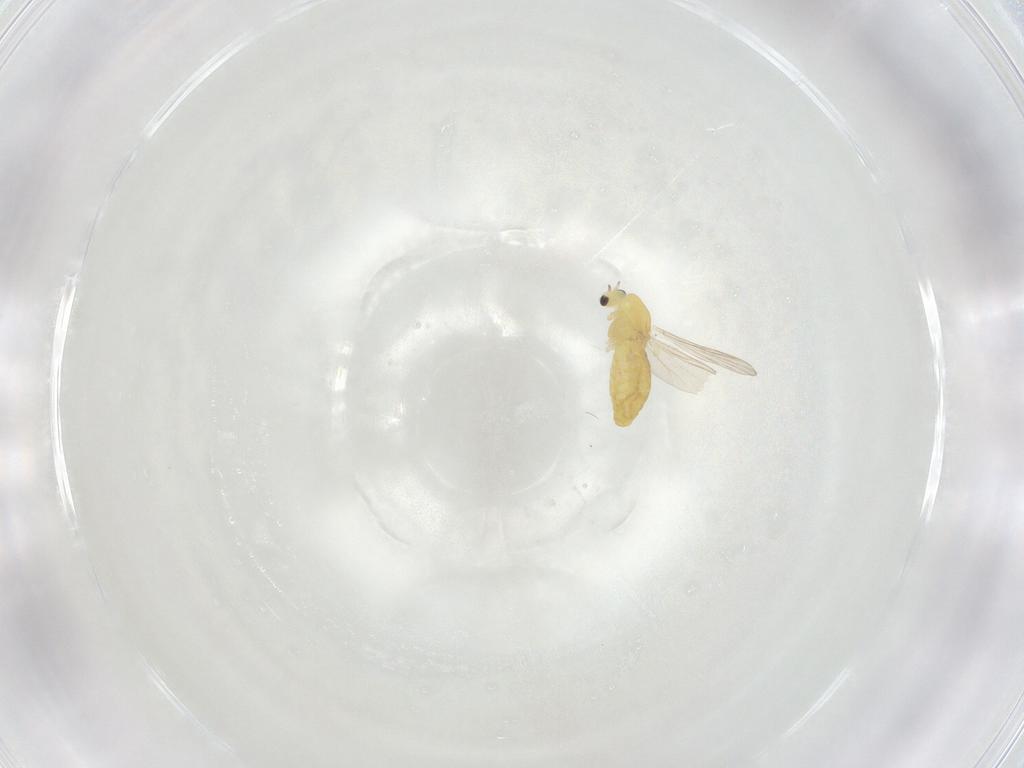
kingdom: Animalia
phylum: Arthropoda
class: Insecta
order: Diptera
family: Chironomidae
